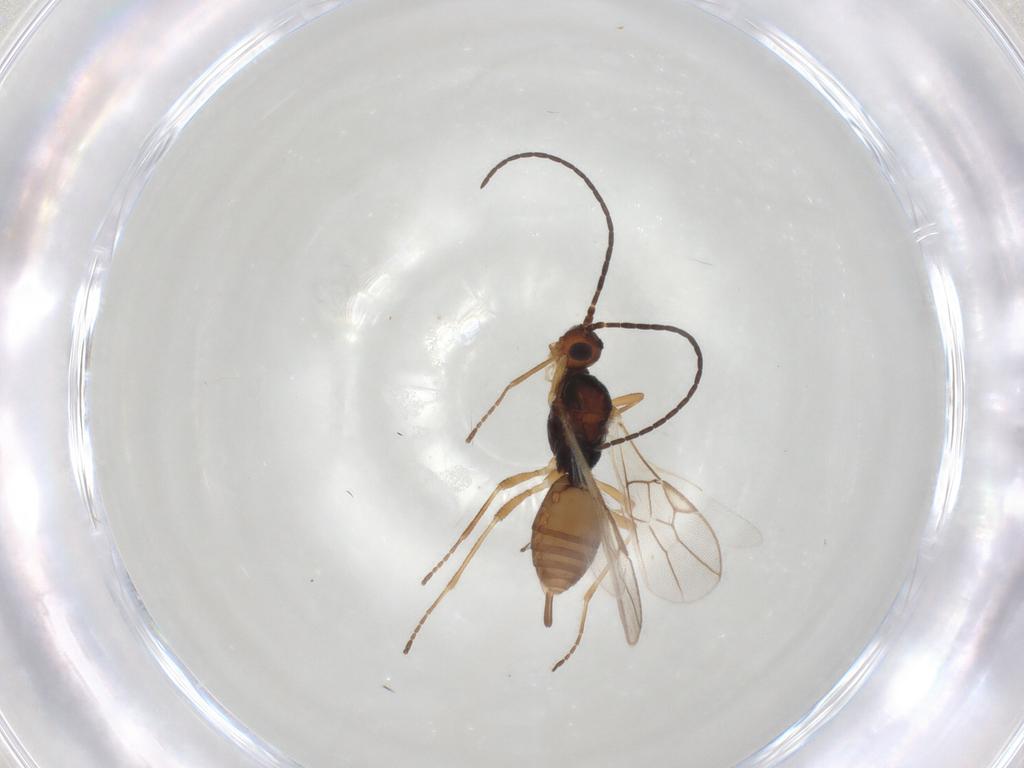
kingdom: Animalia
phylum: Arthropoda
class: Insecta
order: Hymenoptera
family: Braconidae
